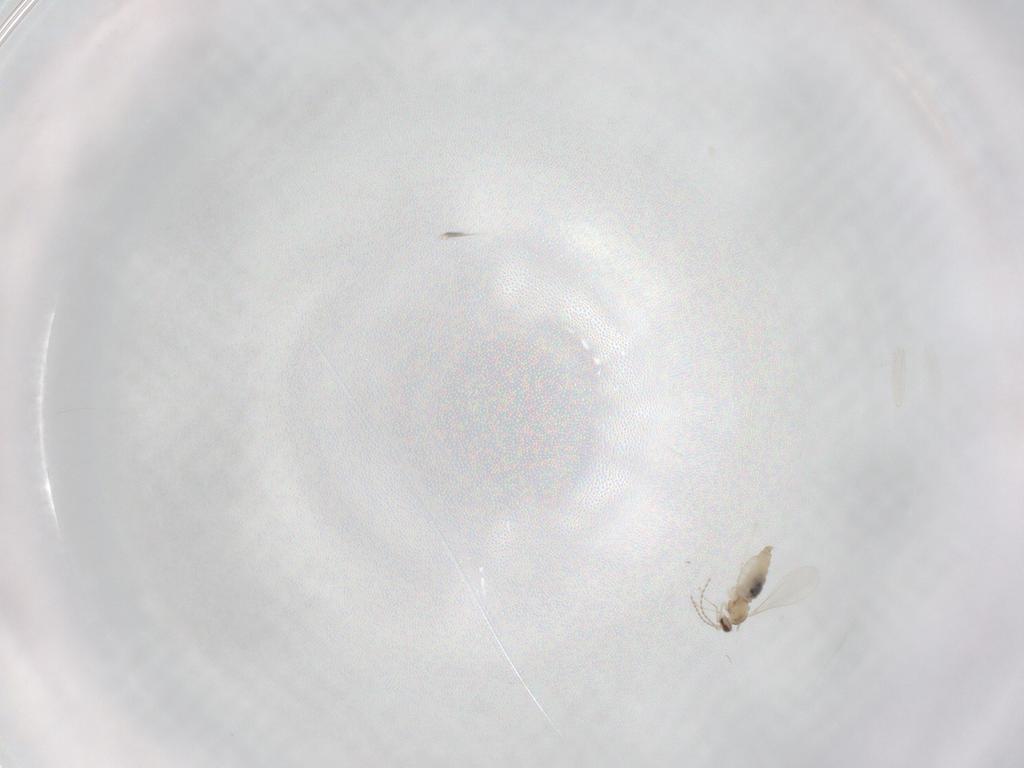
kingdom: Animalia
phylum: Arthropoda
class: Insecta
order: Diptera
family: Cecidomyiidae
